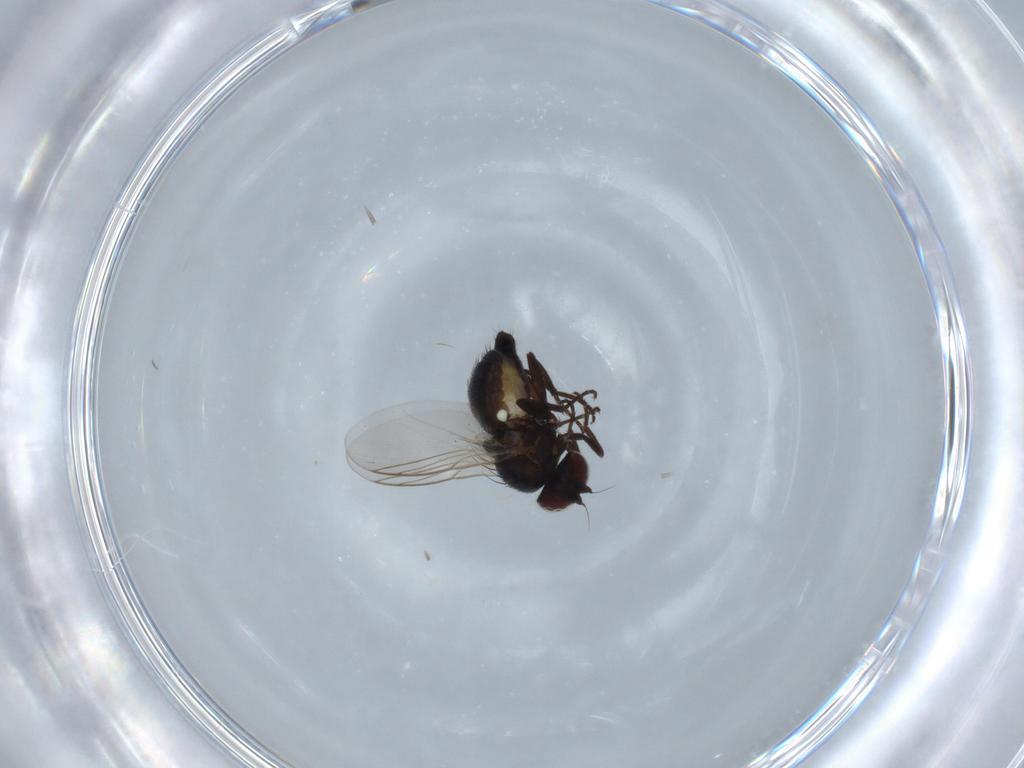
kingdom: Animalia
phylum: Arthropoda
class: Insecta
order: Diptera
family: Dolichopodidae
